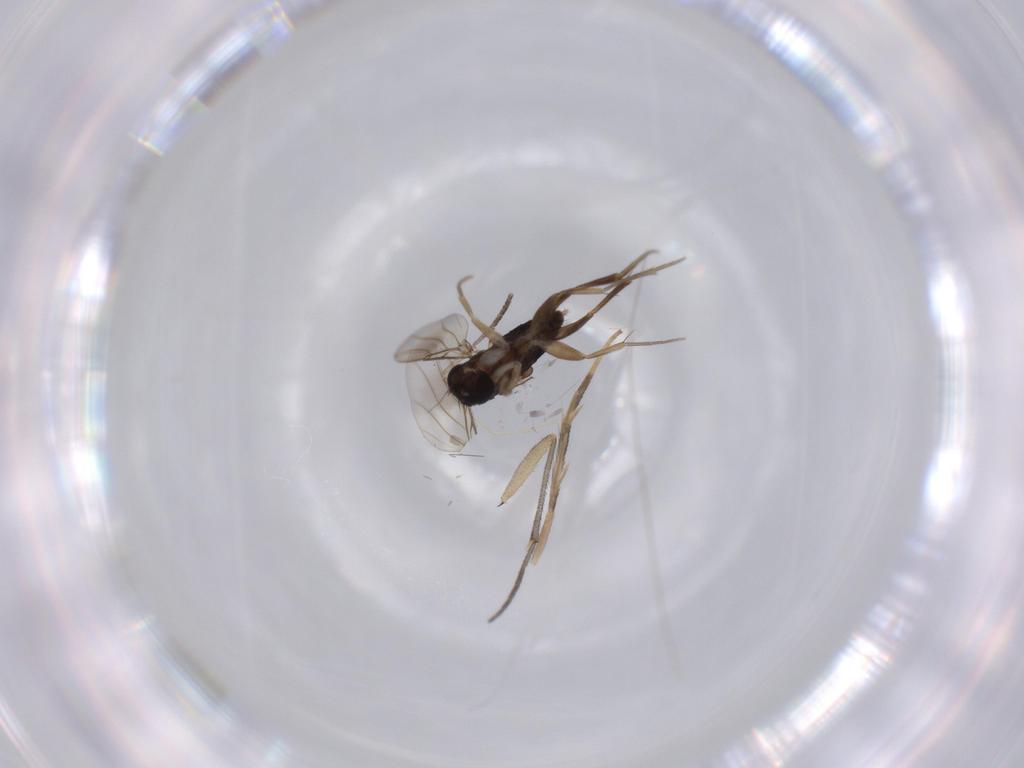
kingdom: Animalia
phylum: Arthropoda
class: Insecta
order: Diptera
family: Phoridae
